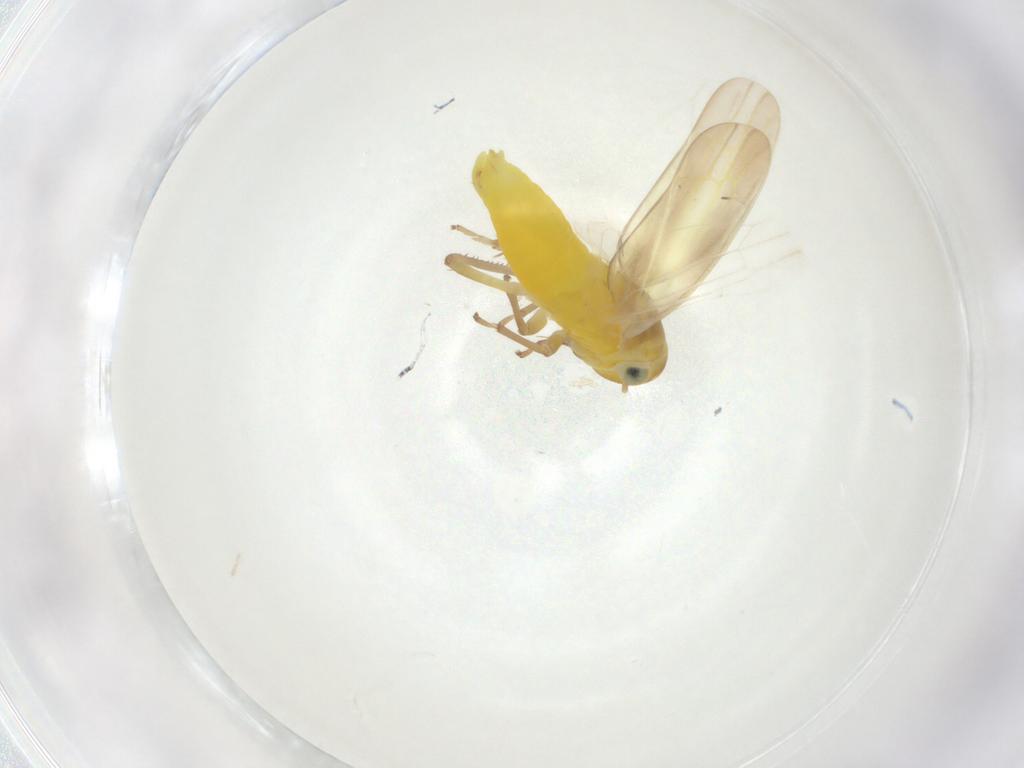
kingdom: Animalia
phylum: Arthropoda
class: Insecta
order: Hemiptera
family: Cicadellidae
